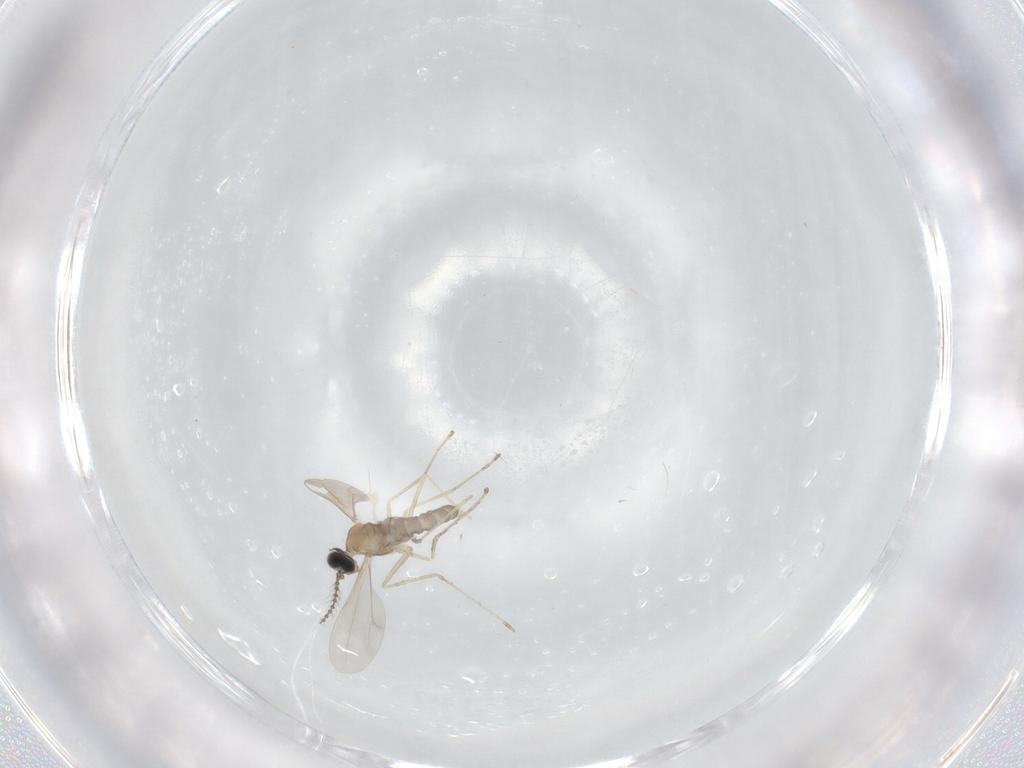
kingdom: Animalia
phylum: Arthropoda
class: Insecta
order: Diptera
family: Cecidomyiidae
